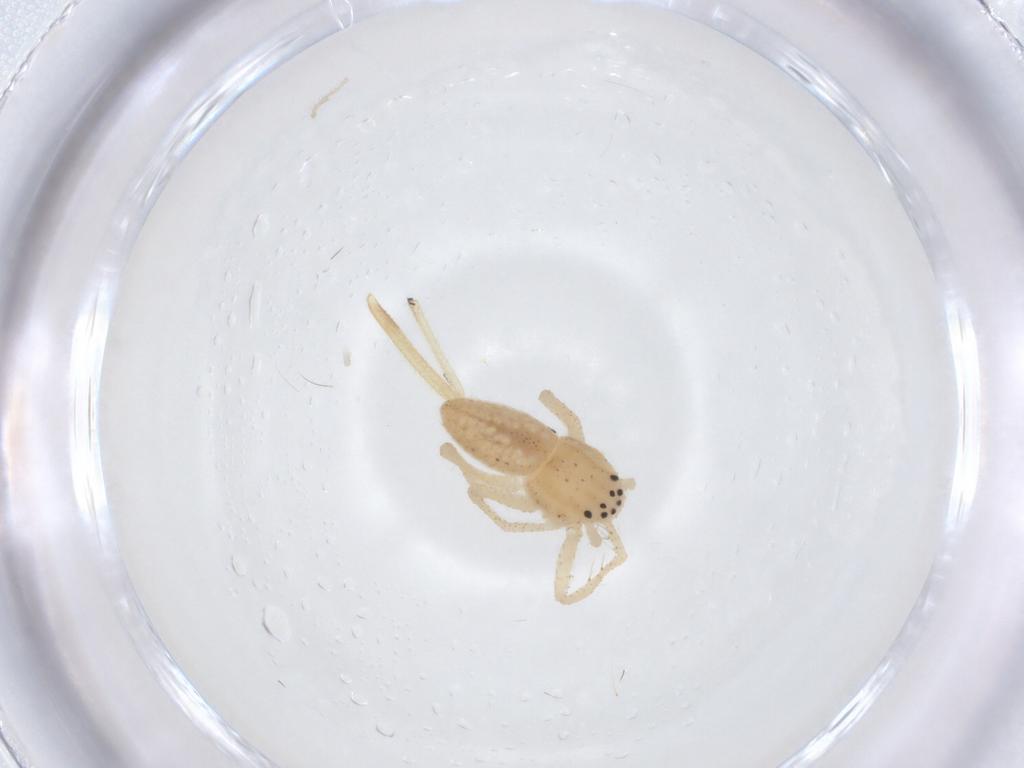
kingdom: Animalia
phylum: Arthropoda
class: Arachnida
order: Araneae
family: Philodromidae
